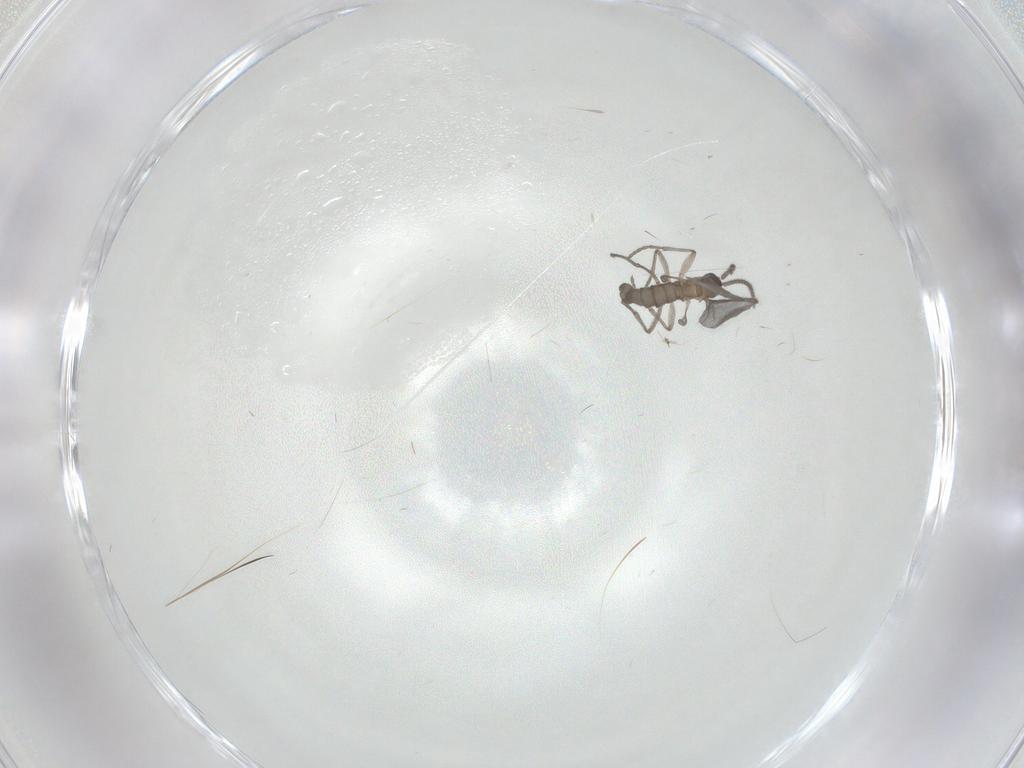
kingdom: Animalia
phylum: Arthropoda
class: Insecta
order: Diptera
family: Sciaridae
